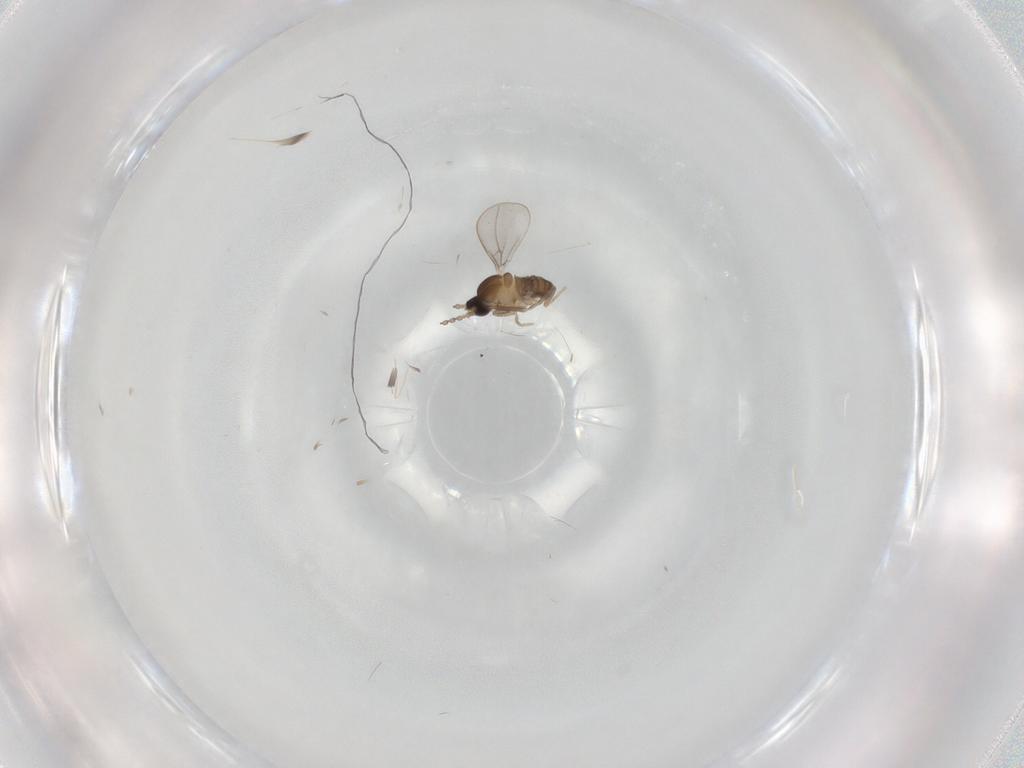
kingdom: Animalia
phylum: Arthropoda
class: Insecta
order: Diptera
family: Cecidomyiidae
